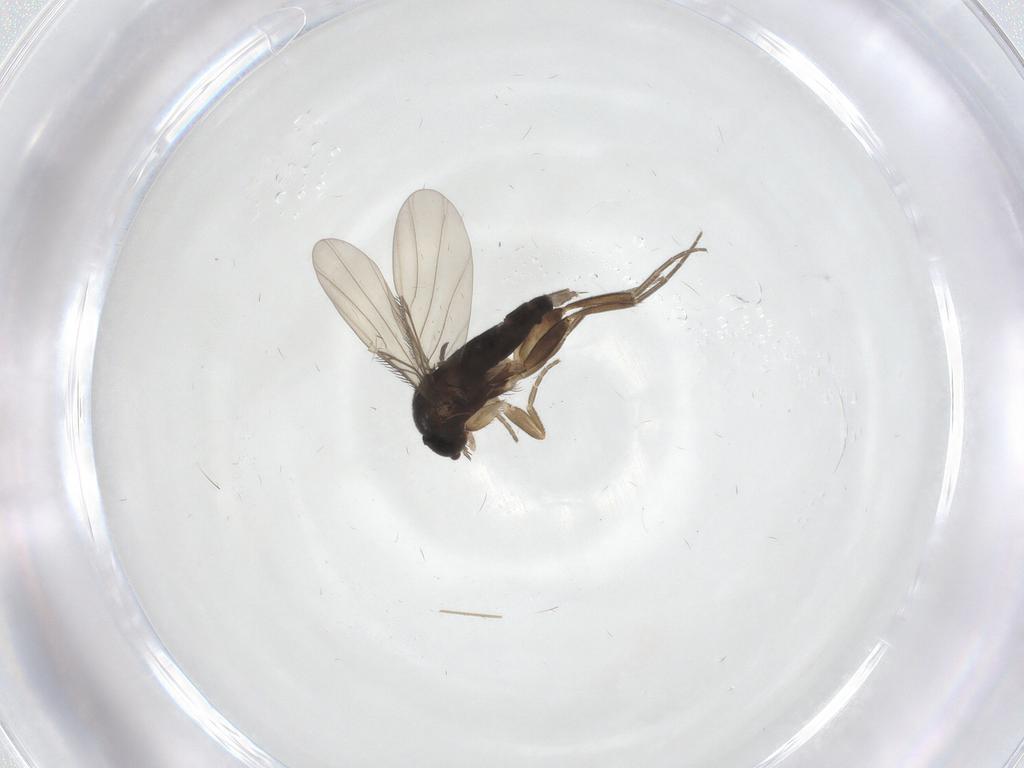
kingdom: Animalia
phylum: Arthropoda
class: Insecta
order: Diptera
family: Phoridae
